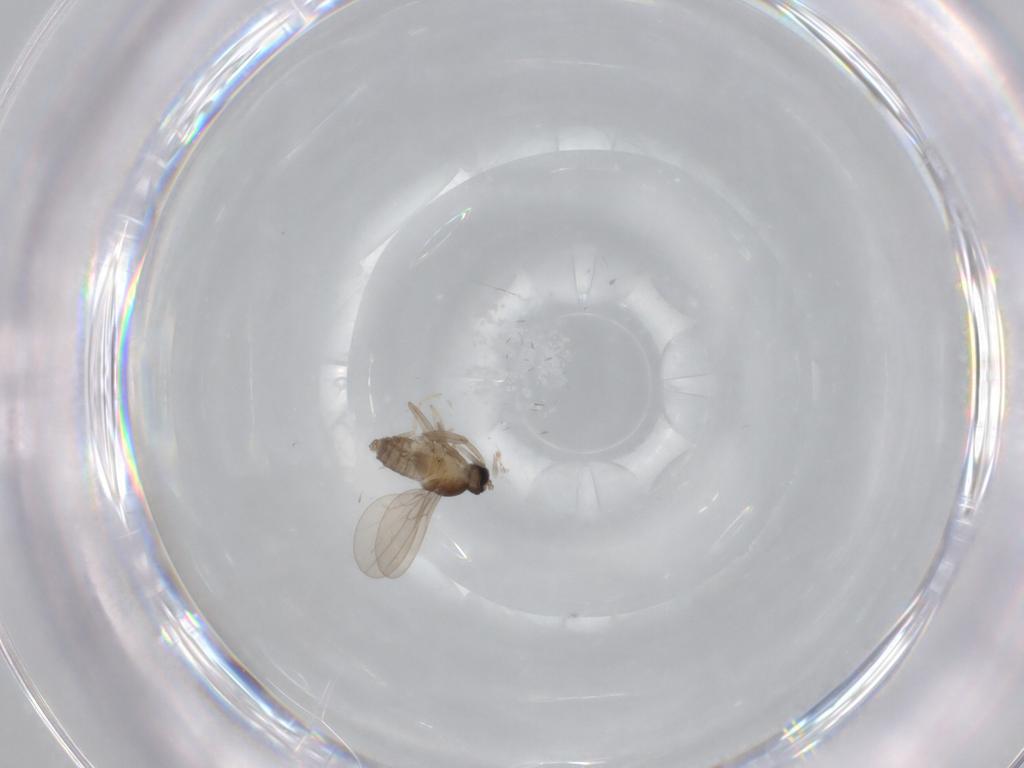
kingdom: Animalia
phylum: Arthropoda
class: Insecta
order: Diptera
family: Cecidomyiidae
